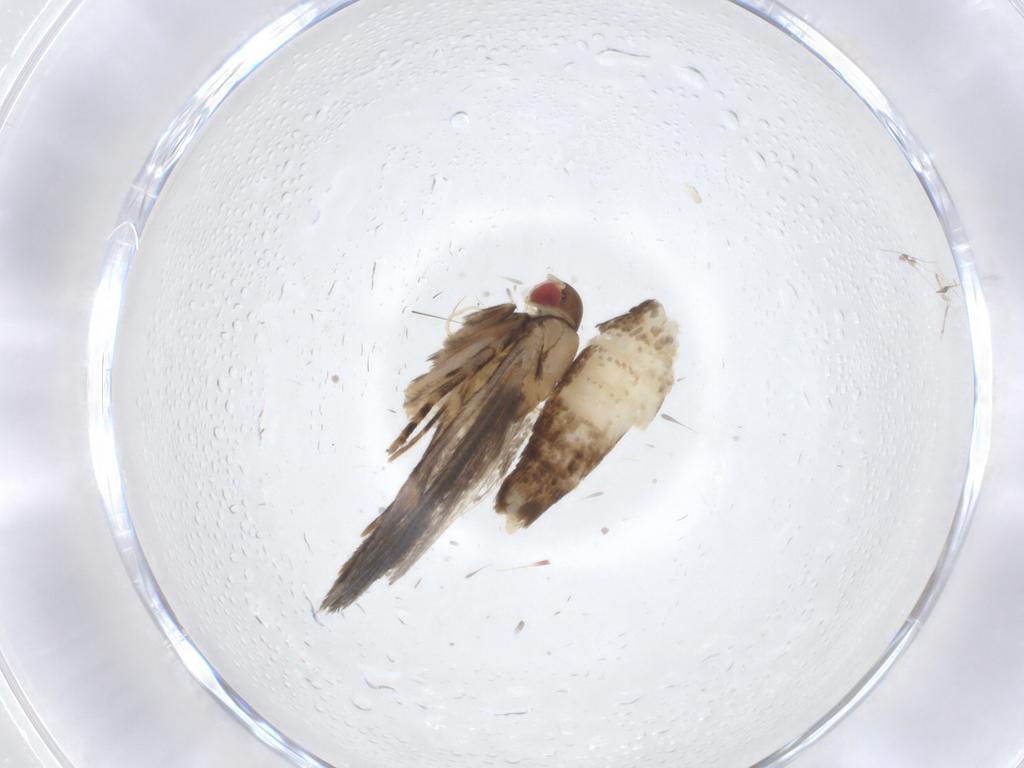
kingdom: Animalia
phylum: Arthropoda
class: Insecta
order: Lepidoptera
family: Gelechiidae
